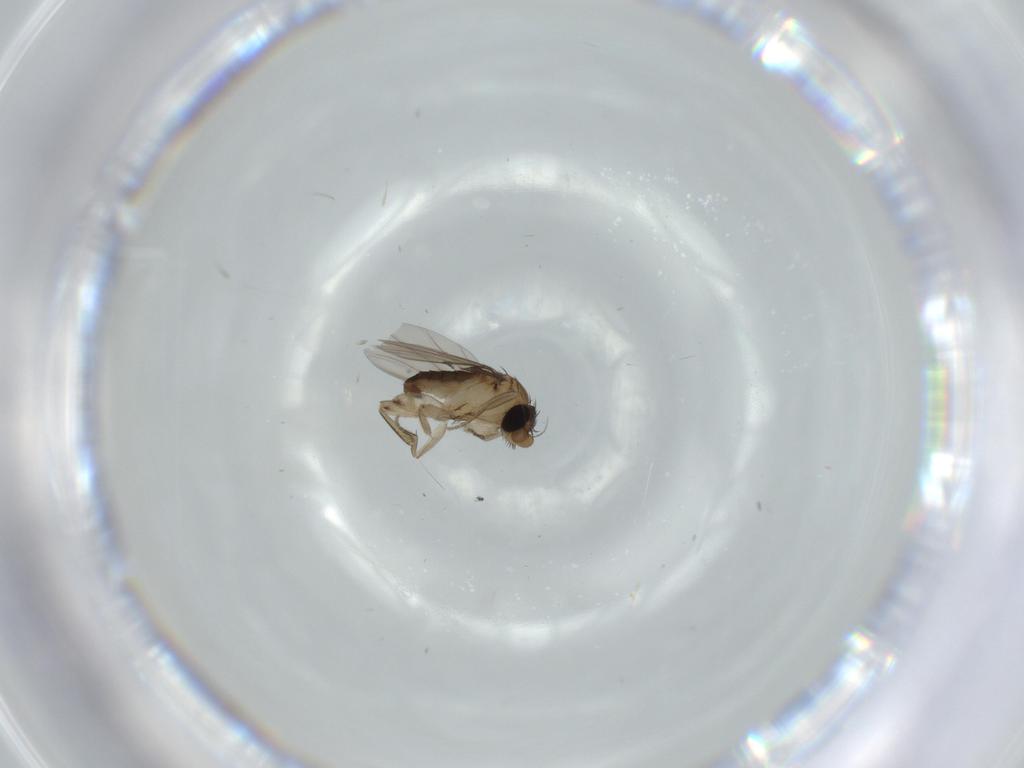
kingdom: Animalia
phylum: Arthropoda
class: Insecta
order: Diptera
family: Phoridae
